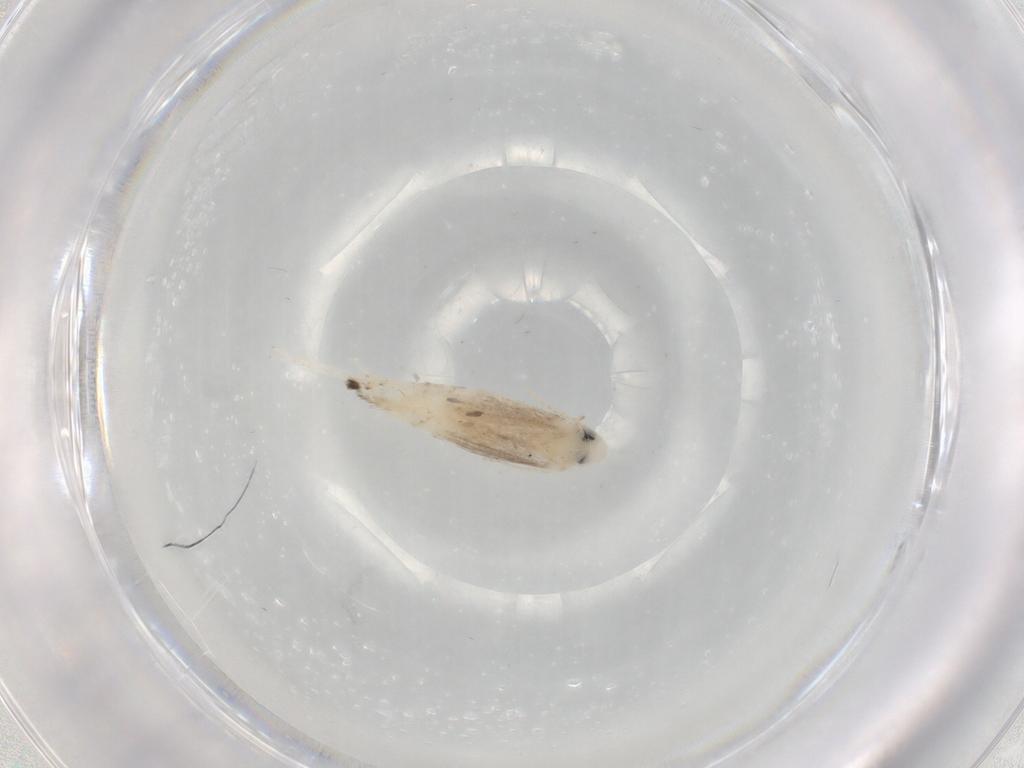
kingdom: Animalia
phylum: Arthropoda
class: Insecta
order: Lepidoptera
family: Gracillariidae
